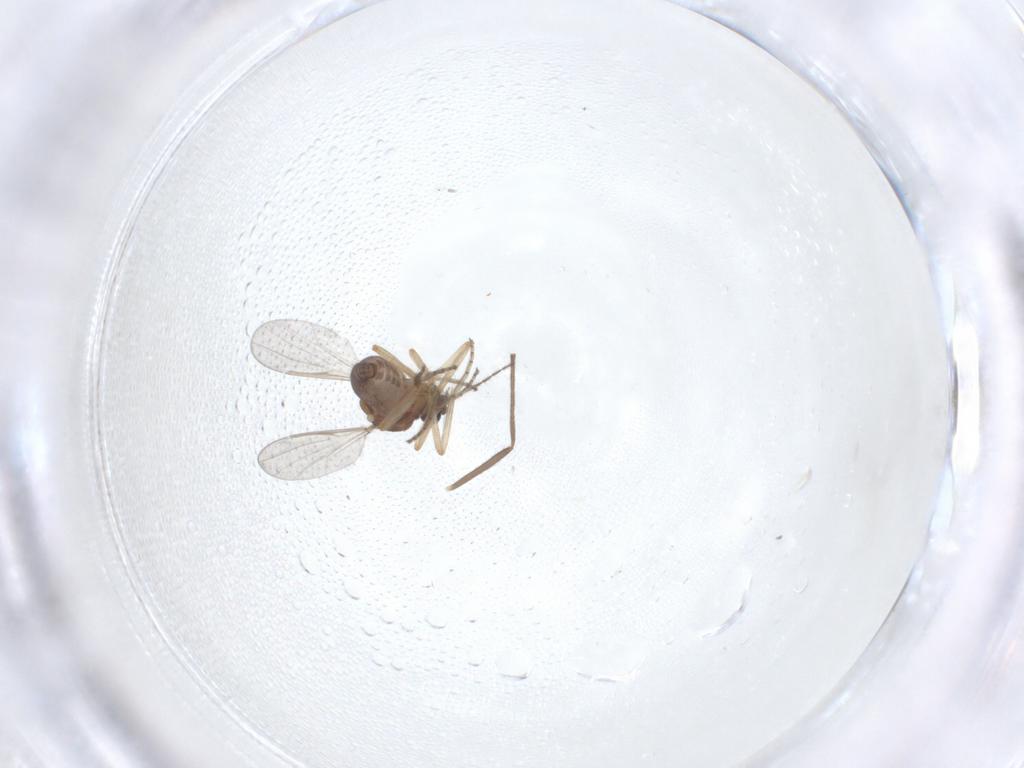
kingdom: Animalia
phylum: Arthropoda
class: Insecta
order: Diptera
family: Ceratopogonidae
